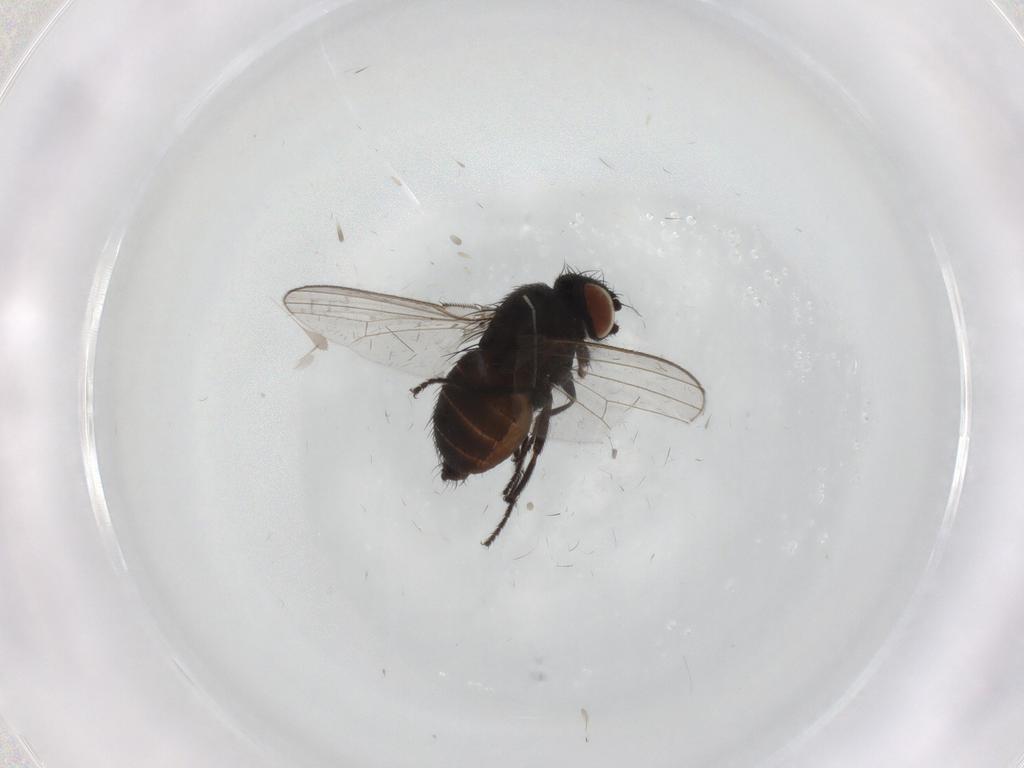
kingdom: Animalia
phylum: Arthropoda
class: Insecta
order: Diptera
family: Milichiidae
